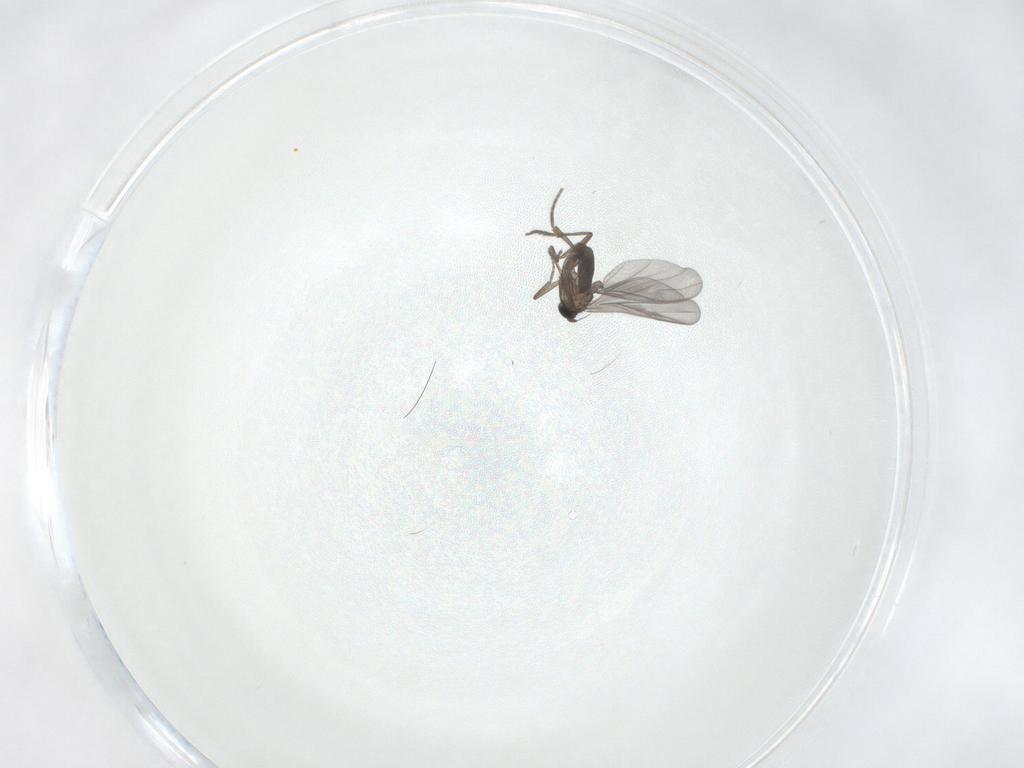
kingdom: Animalia
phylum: Arthropoda
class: Insecta
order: Diptera
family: Phoridae
